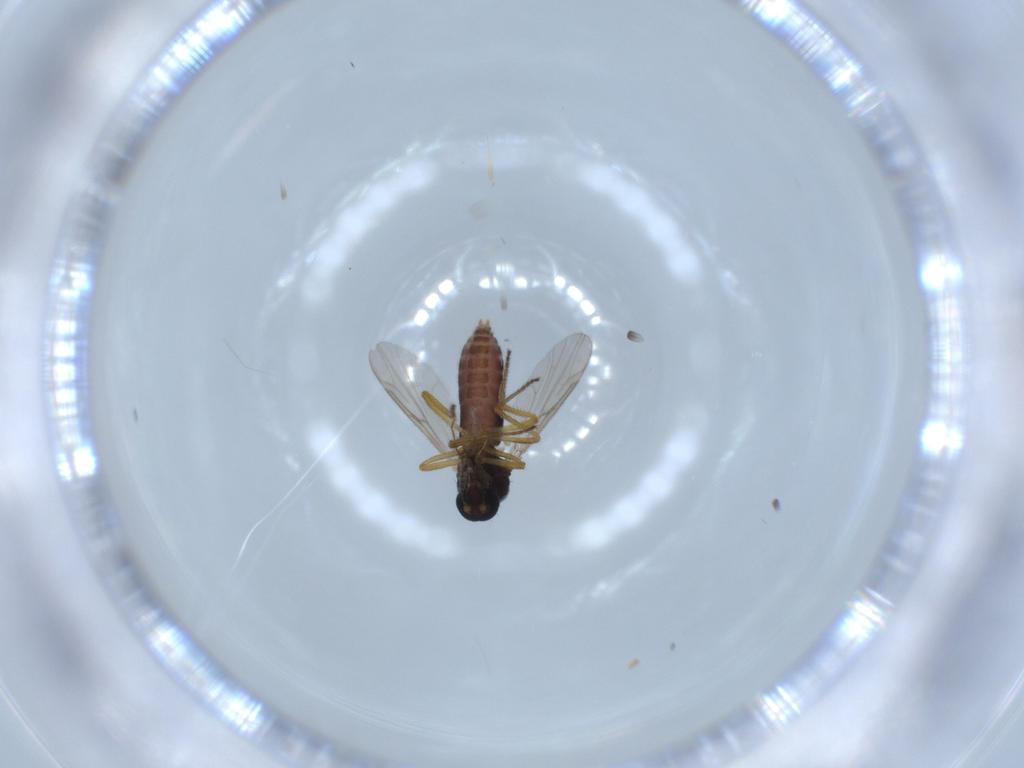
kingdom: Animalia
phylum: Arthropoda
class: Insecta
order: Diptera
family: Ceratopogonidae
